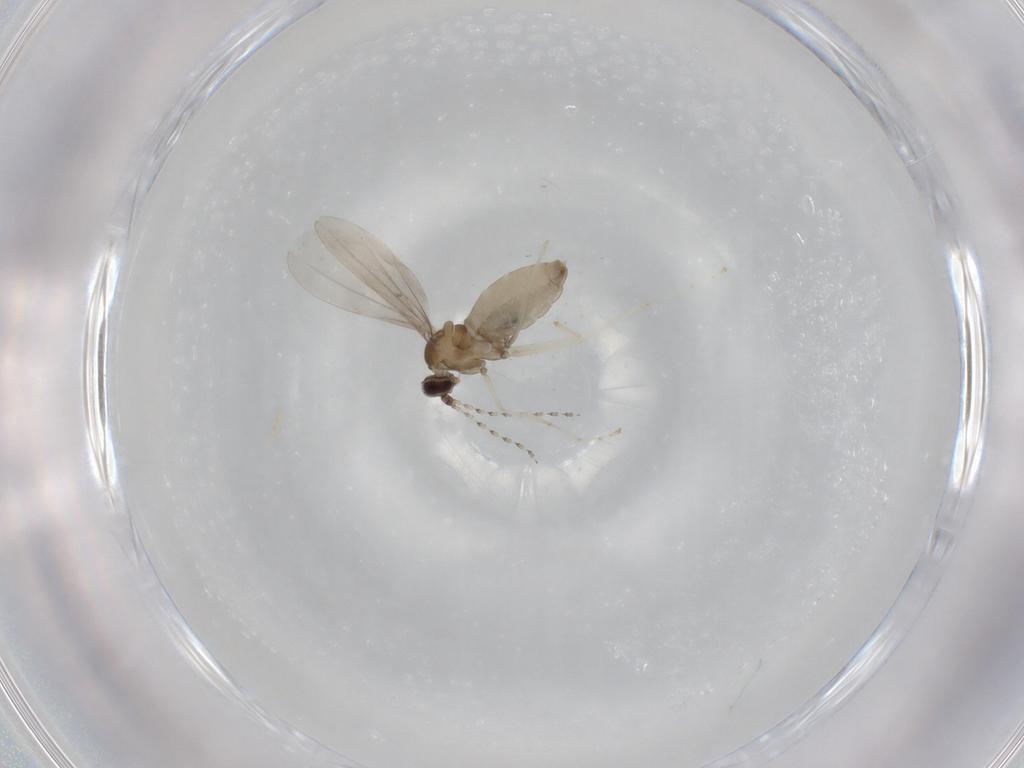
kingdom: Animalia
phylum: Arthropoda
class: Insecta
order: Diptera
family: Cecidomyiidae
